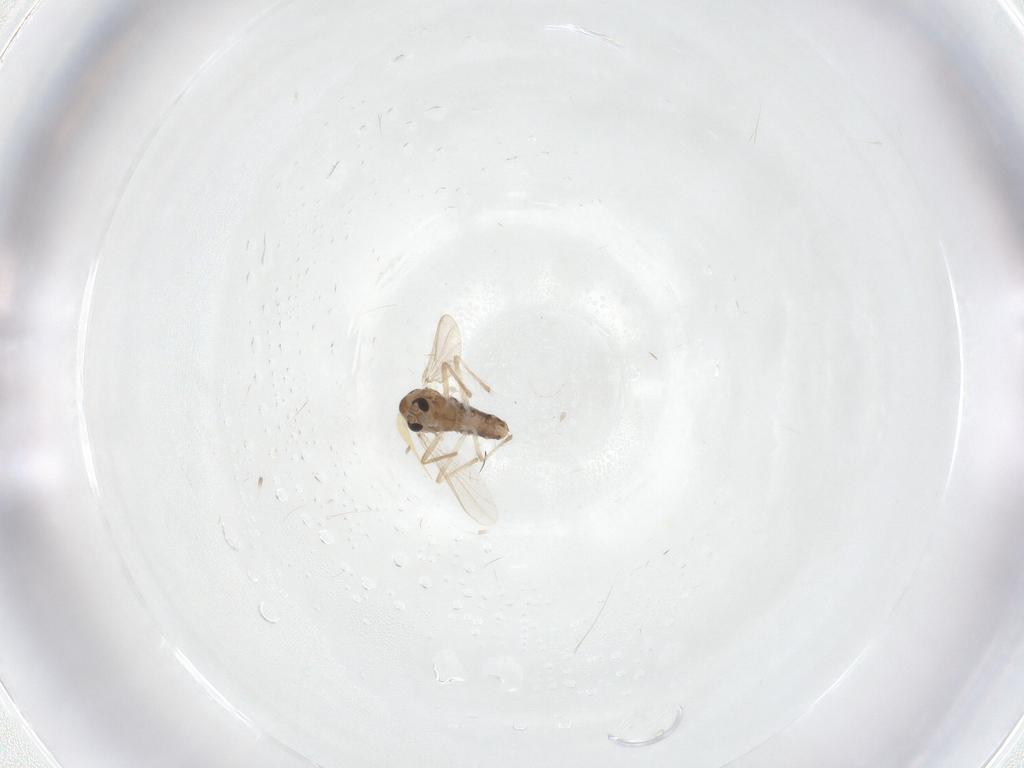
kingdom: Animalia
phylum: Arthropoda
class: Insecta
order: Diptera
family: Chironomidae
